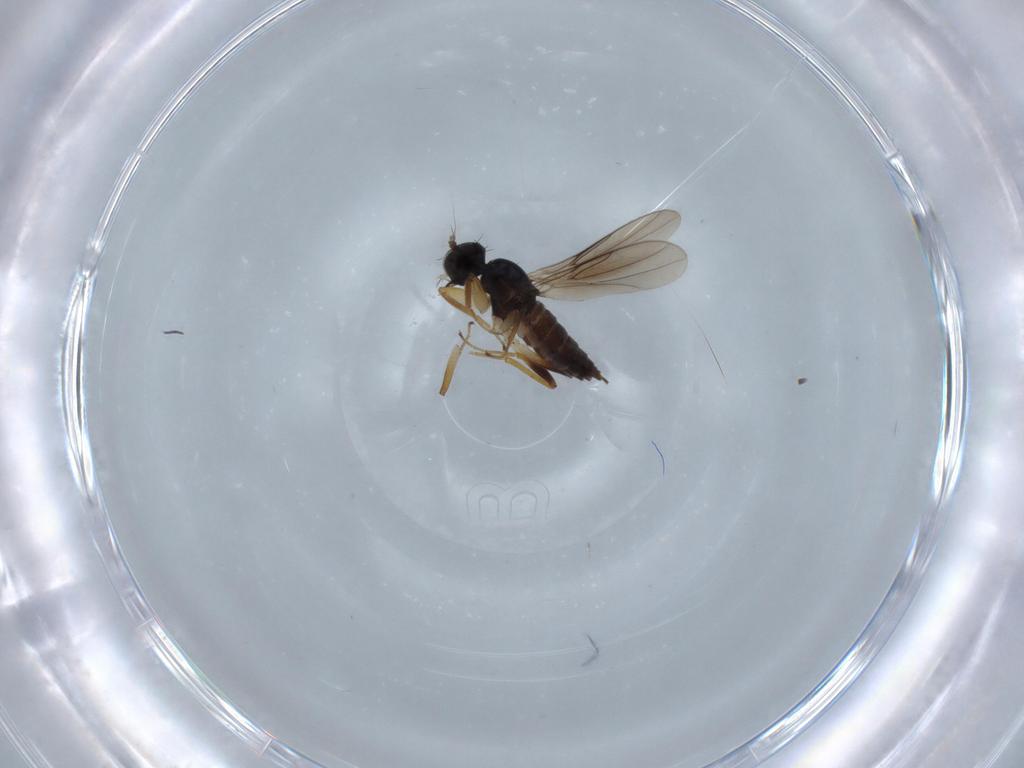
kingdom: Animalia
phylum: Arthropoda
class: Insecta
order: Diptera
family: Hybotidae
